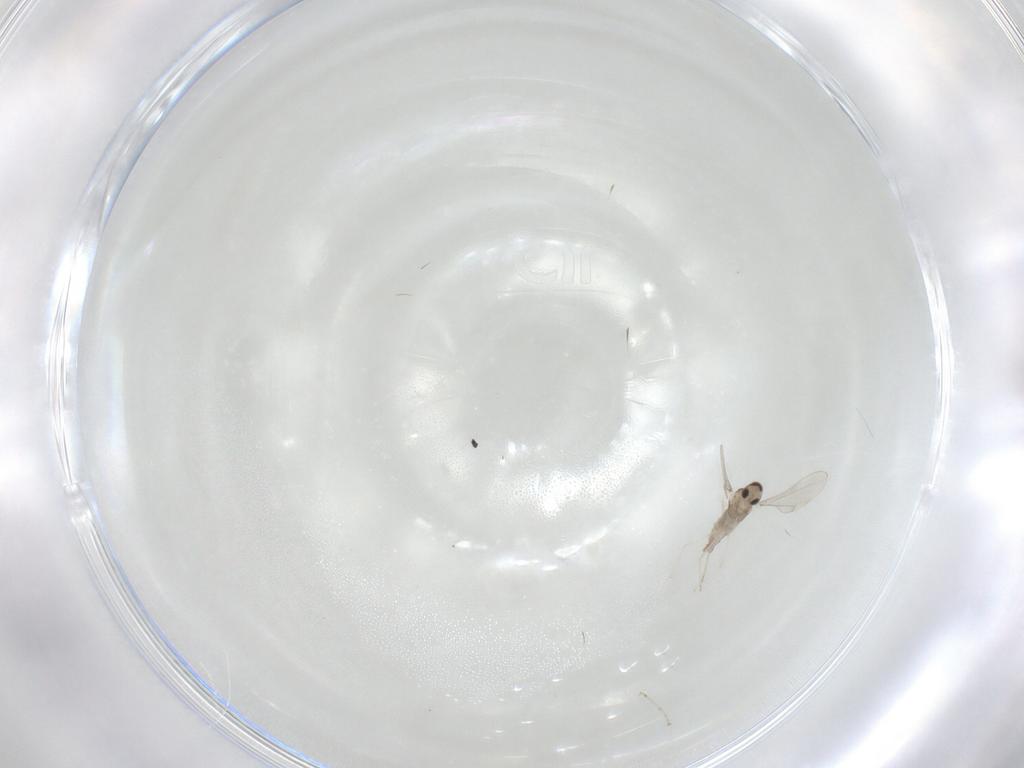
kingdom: Animalia
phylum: Arthropoda
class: Insecta
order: Diptera
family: Cecidomyiidae
